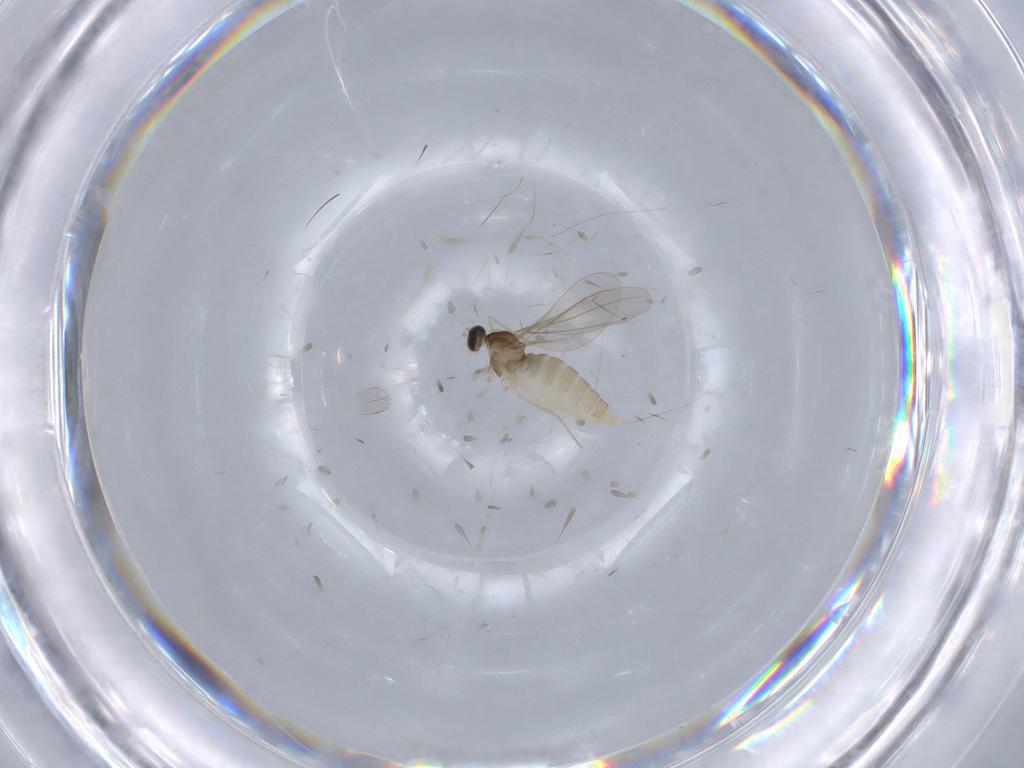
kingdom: Animalia
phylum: Arthropoda
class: Insecta
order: Diptera
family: Cecidomyiidae
